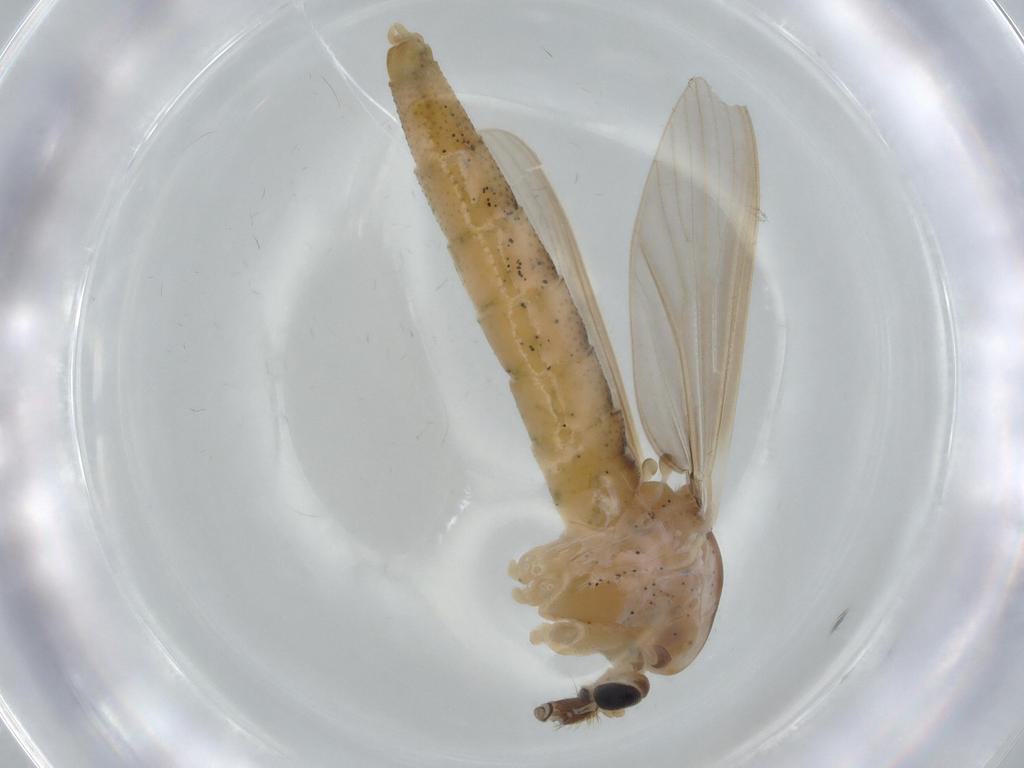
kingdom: Animalia
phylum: Arthropoda
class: Insecta
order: Diptera
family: Chironomidae
